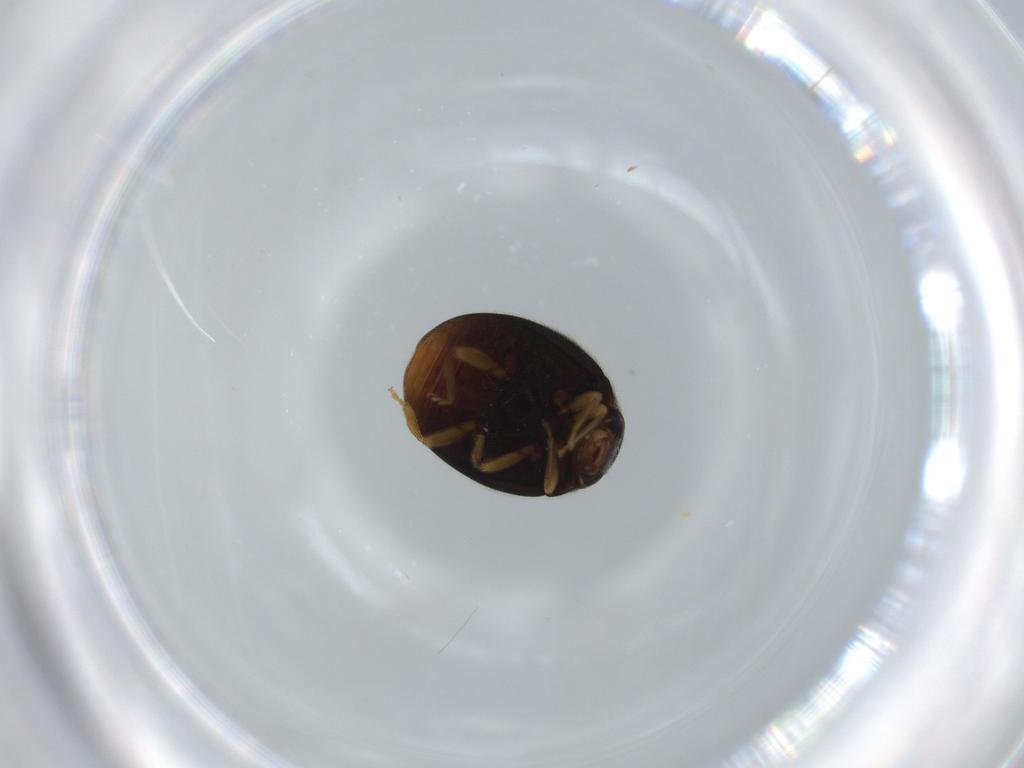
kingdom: Animalia
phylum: Arthropoda
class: Insecta
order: Coleoptera
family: Coccinellidae
